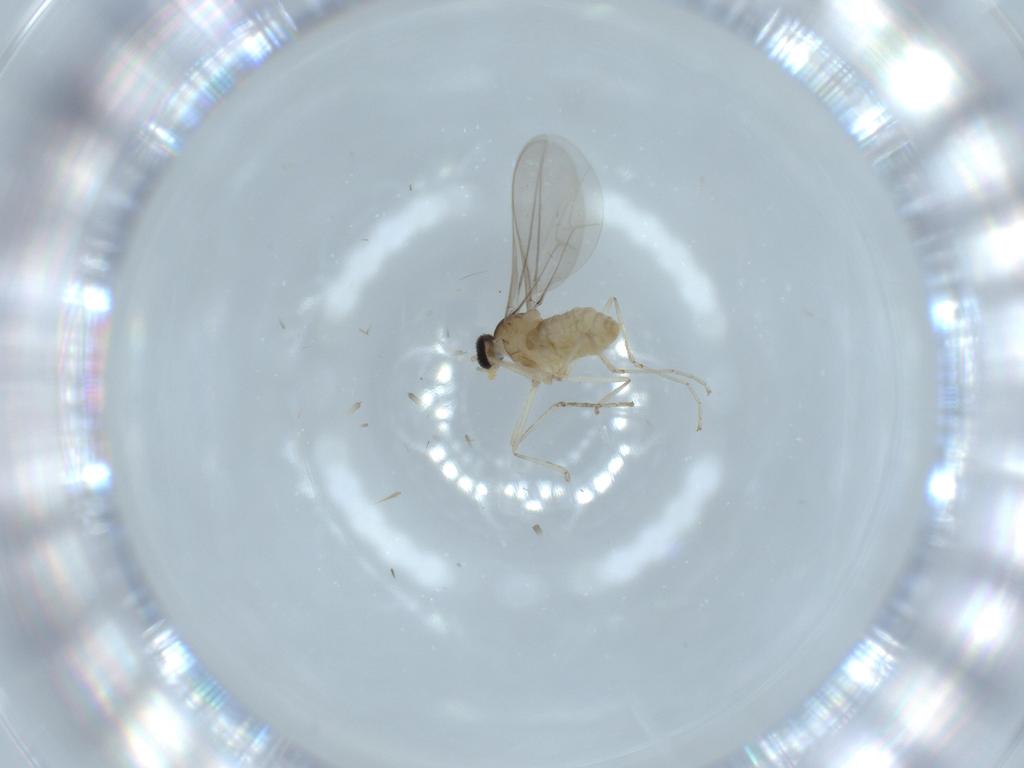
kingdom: Animalia
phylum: Arthropoda
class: Insecta
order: Diptera
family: Cecidomyiidae
